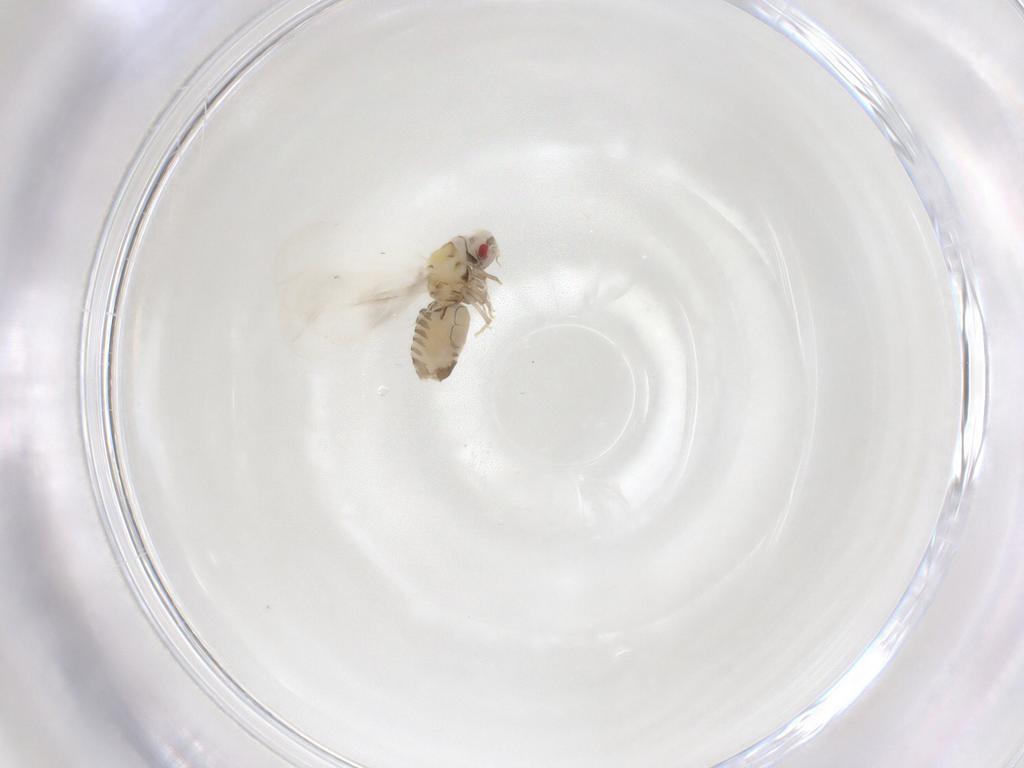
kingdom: Animalia
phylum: Arthropoda
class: Insecta
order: Hemiptera
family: Aleyrodidae
